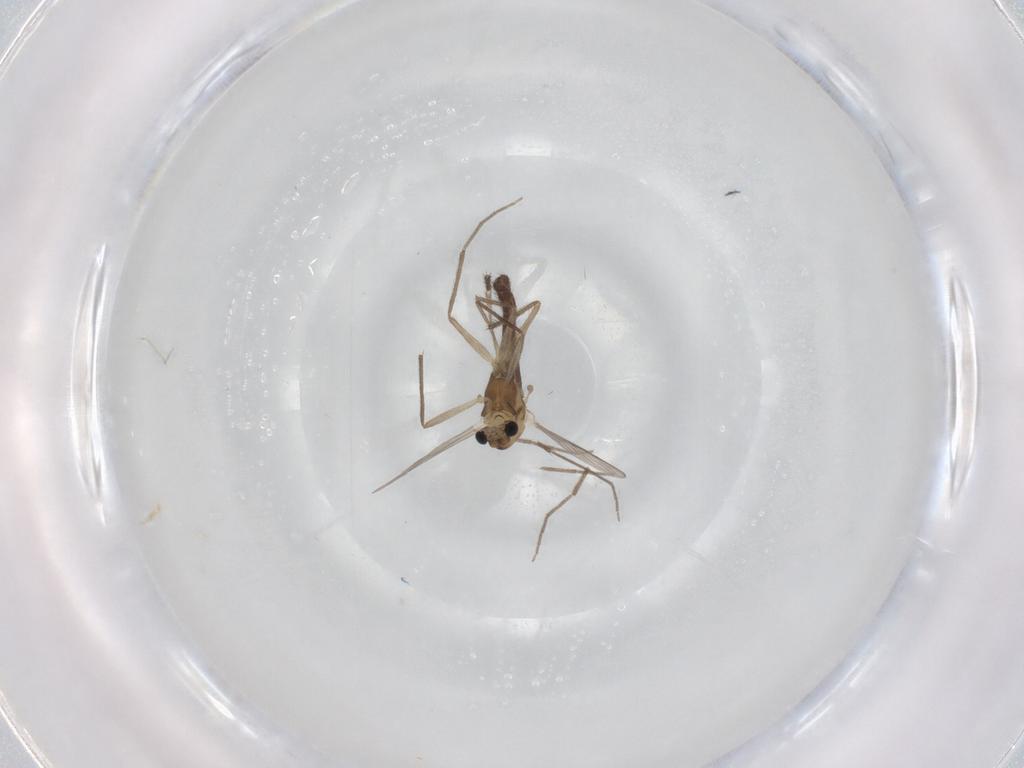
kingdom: Animalia
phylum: Arthropoda
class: Insecta
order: Diptera
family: Chironomidae
